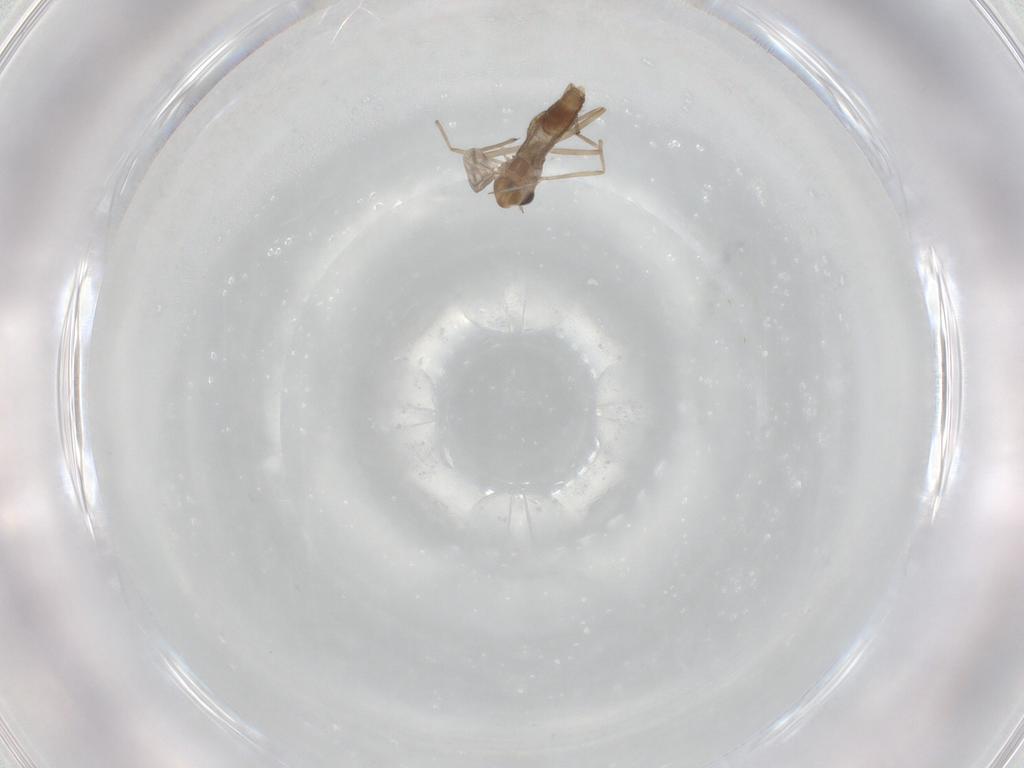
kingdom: Animalia
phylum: Arthropoda
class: Insecta
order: Diptera
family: Chironomidae
